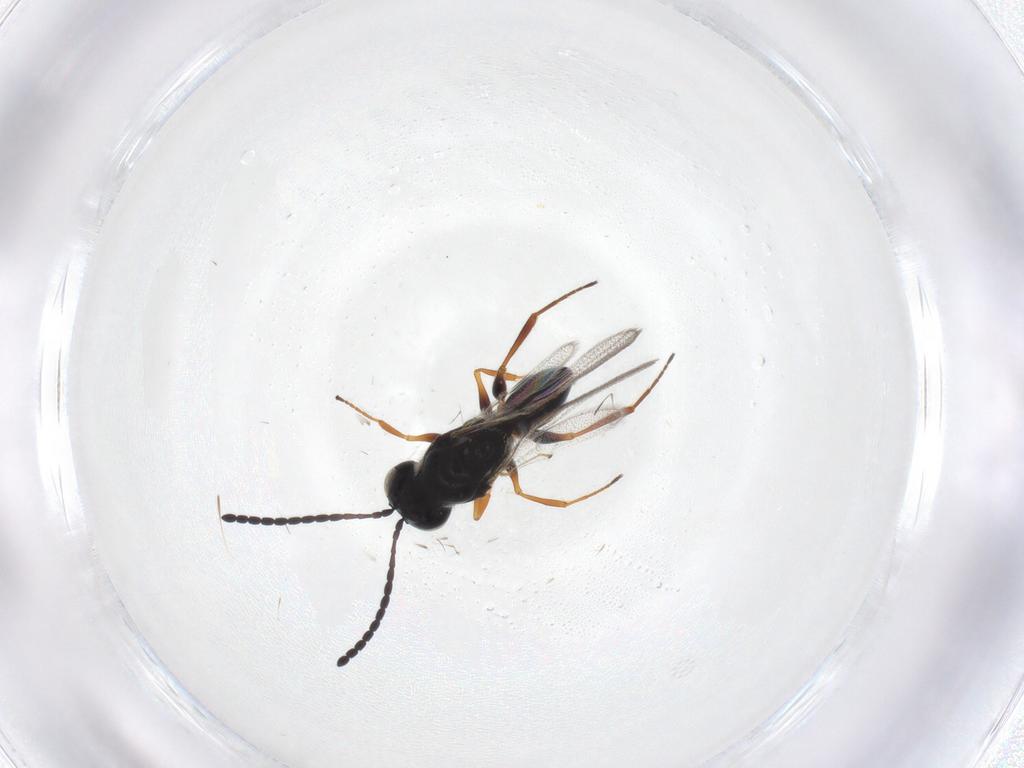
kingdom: Animalia
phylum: Arthropoda
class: Insecta
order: Hymenoptera
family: Figitidae
